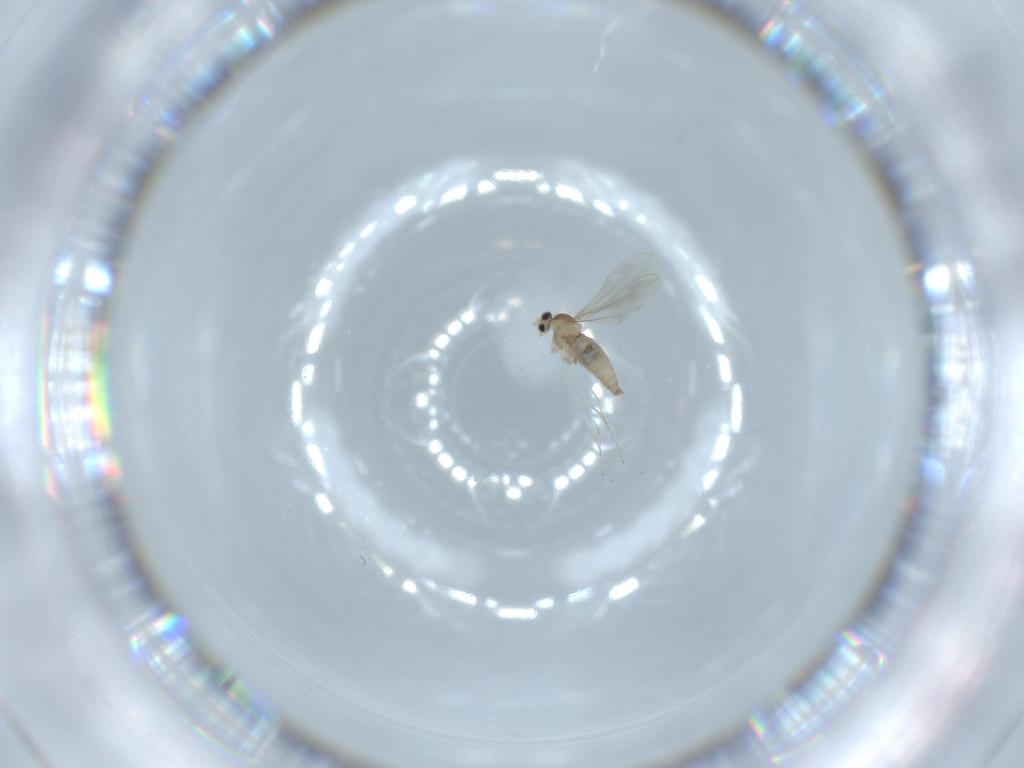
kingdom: Animalia
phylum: Arthropoda
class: Insecta
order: Diptera
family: Cecidomyiidae
